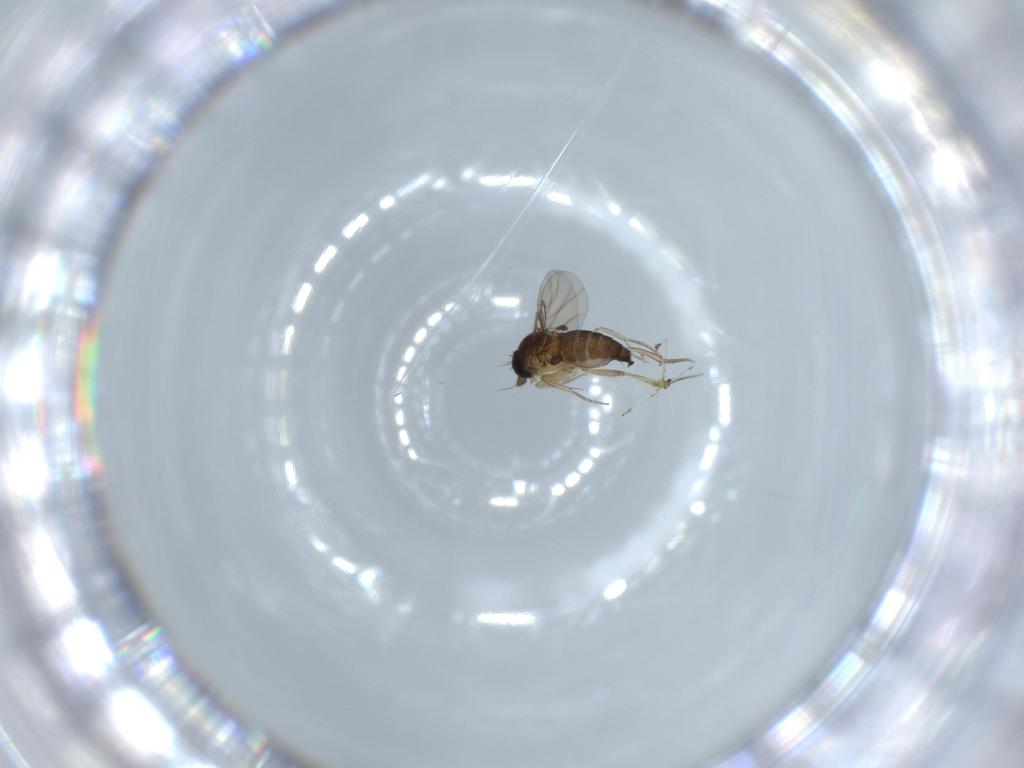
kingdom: Animalia
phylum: Arthropoda
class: Insecta
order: Diptera
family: Phoridae
